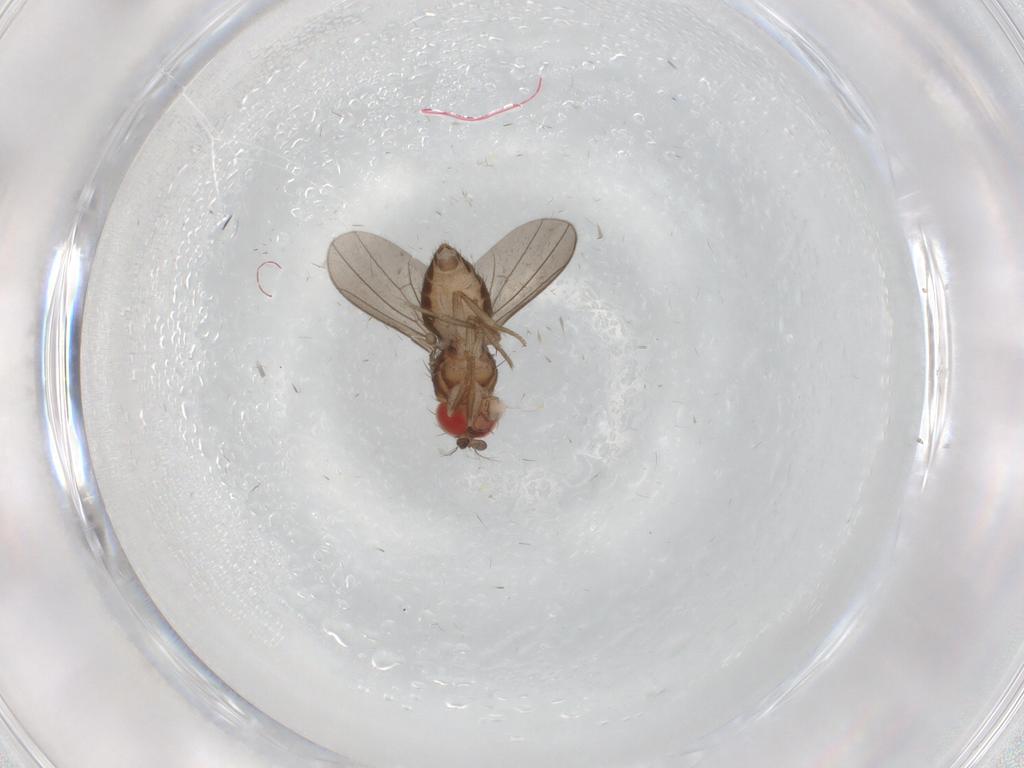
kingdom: Animalia
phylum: Arthropoda
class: Insecta
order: Diptera
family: Drosophilidae
